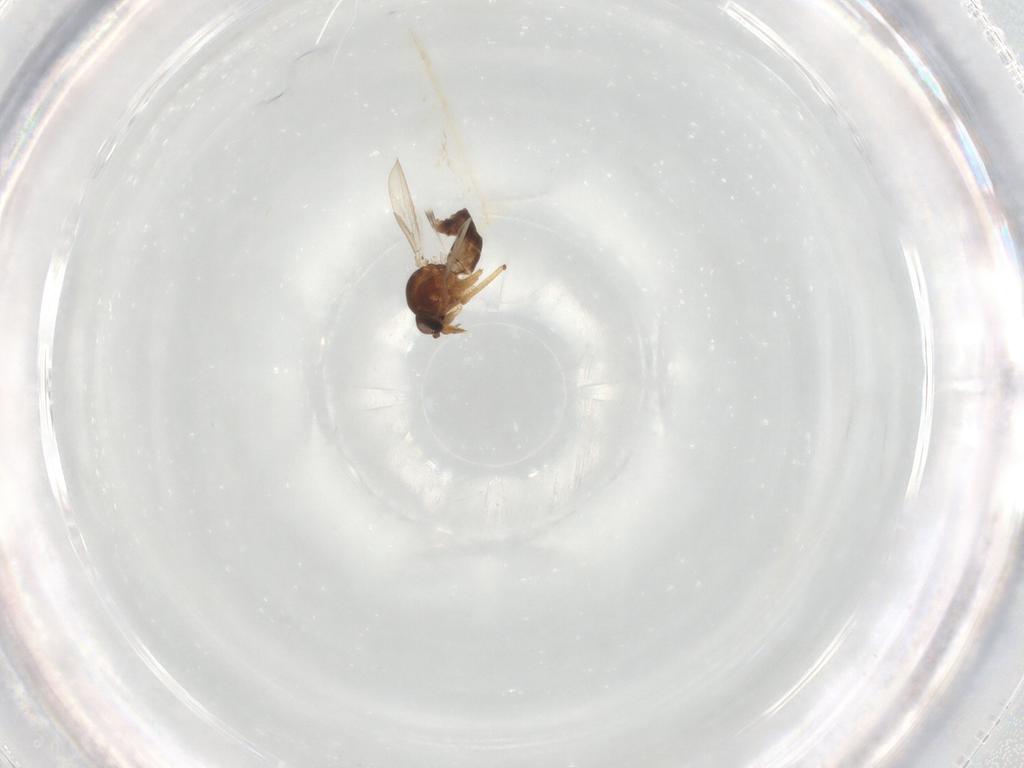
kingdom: Animalia
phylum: Arthropoda
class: Insecta
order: Diptera
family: Ceratopogonidae
